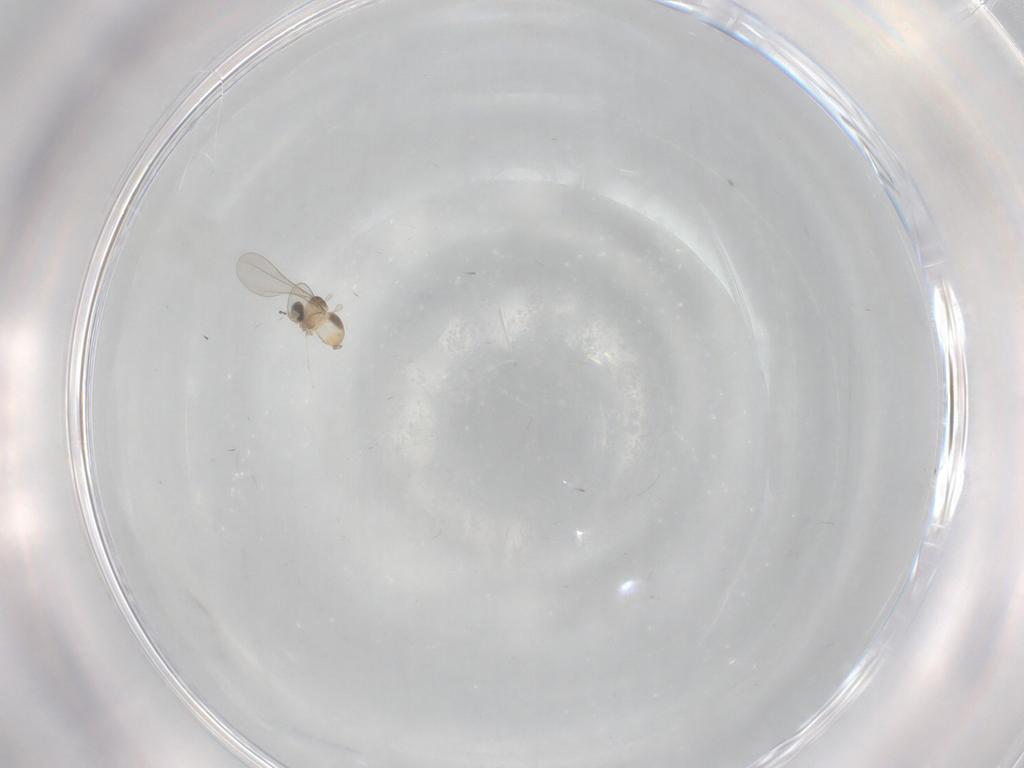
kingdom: Animalia
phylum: Arthropoda
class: Insecta
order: Diptera
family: Cecidomyiidae
